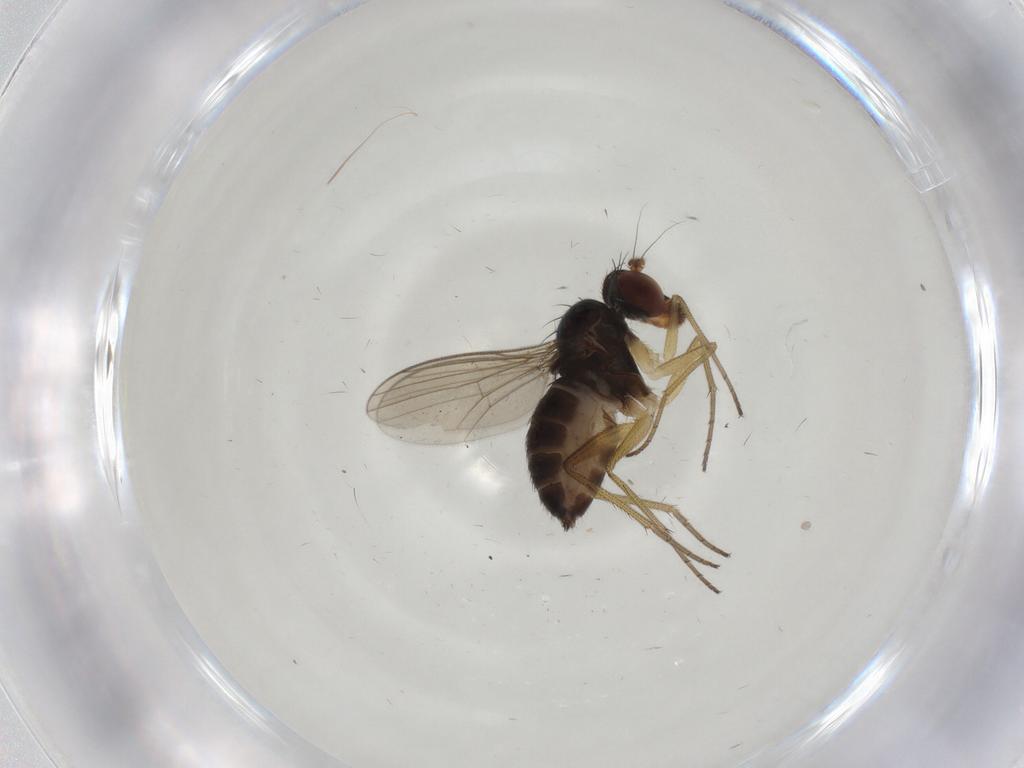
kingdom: Animalia
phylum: Arthropoda
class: Insecta
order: Diptera
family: Dolichopodidae
